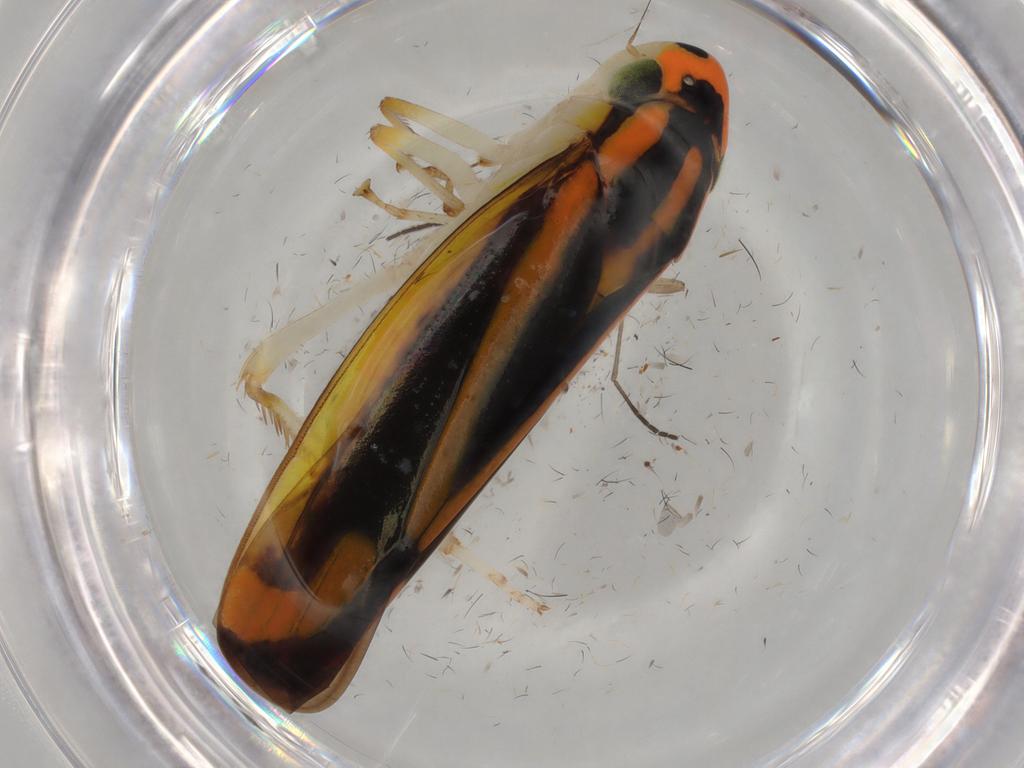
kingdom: Animalia
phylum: Arthropoda
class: Insecta
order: Hemiptera
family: Cicadellidae
